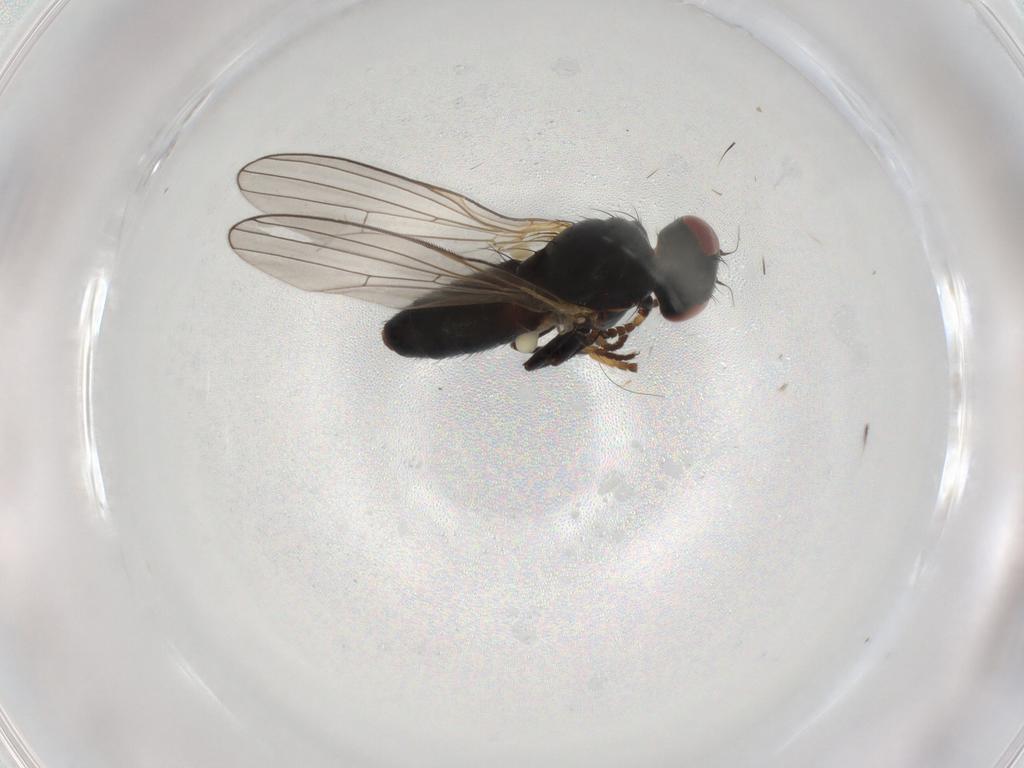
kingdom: Animalia
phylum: Arthropoda
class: Insecta
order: Diptera
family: Chamaemyiidae
